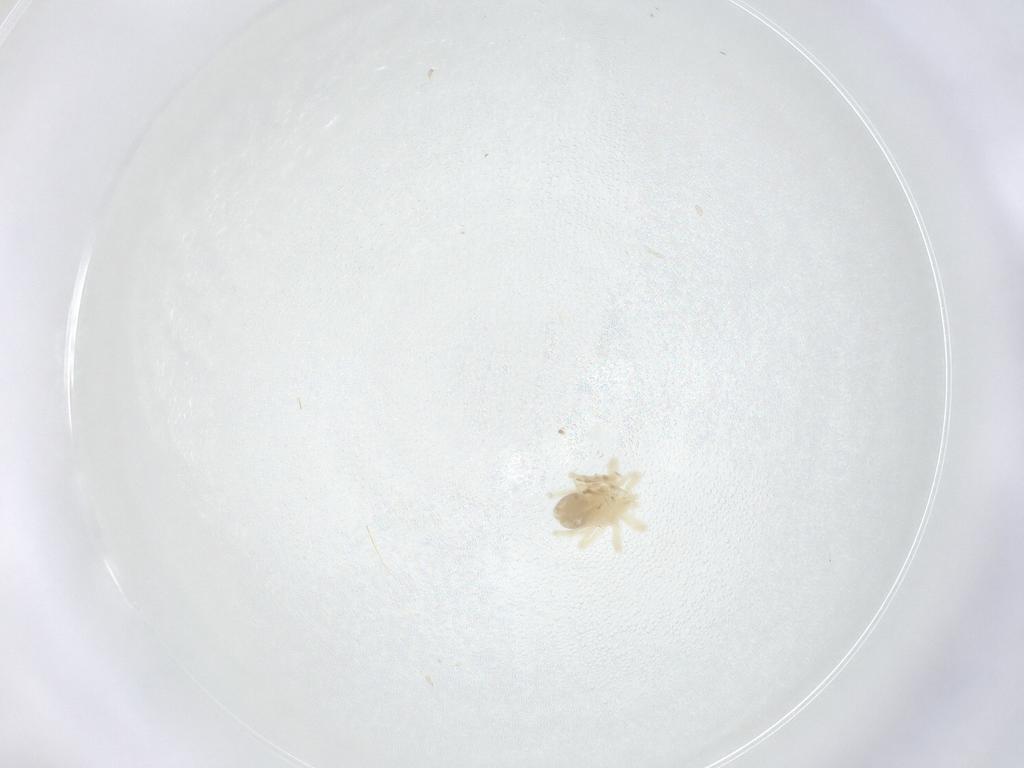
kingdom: Animalia
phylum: Arthropoda
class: Arachnida
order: Trombidiformes
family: Anystidae
